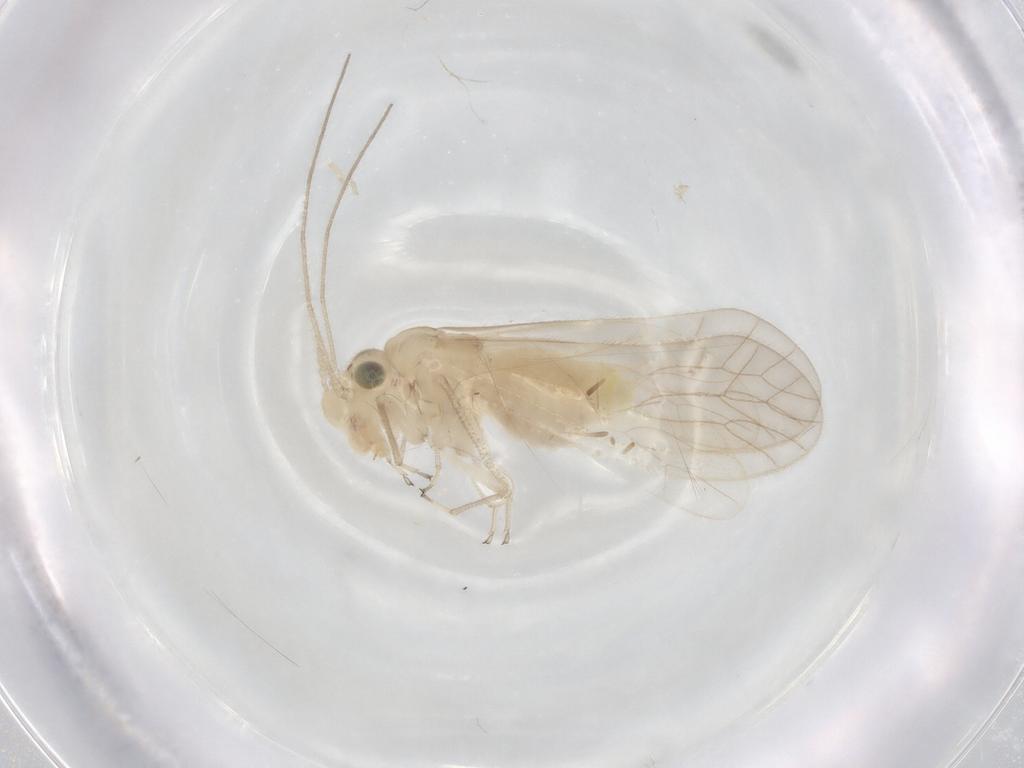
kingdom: Animalia
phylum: Arthropoda
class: Insecta
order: Psocodea
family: Caeciliusidae
